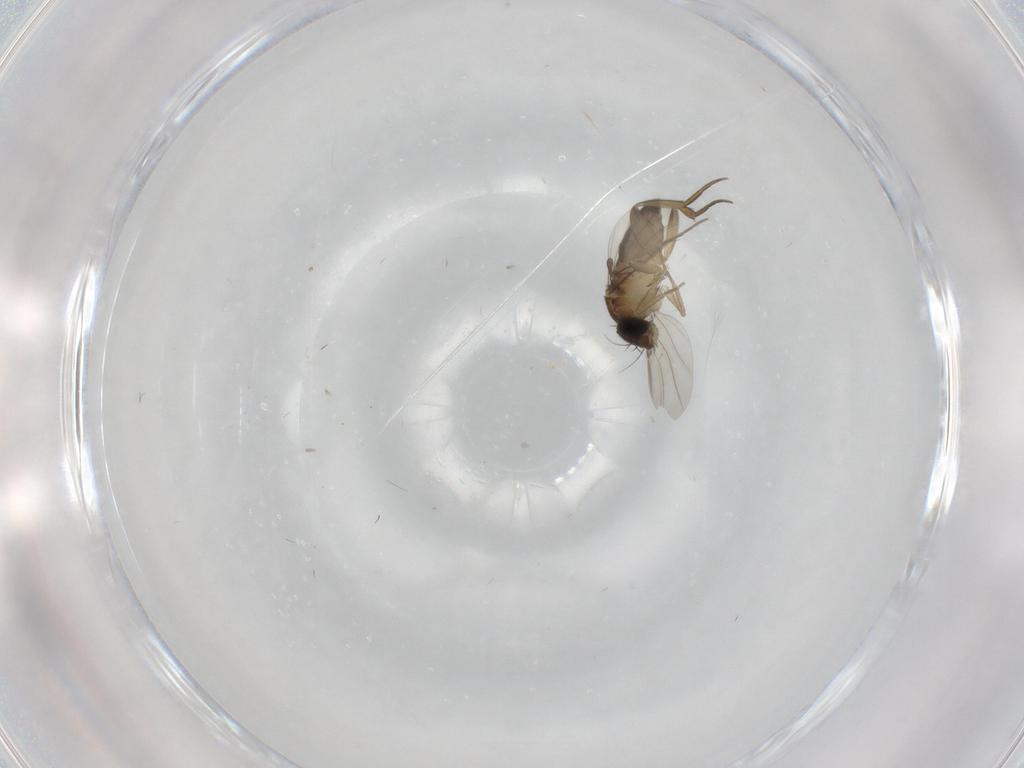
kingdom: Animalia
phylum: Arthropoda
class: Insecta
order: Diptera
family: Phoridae
